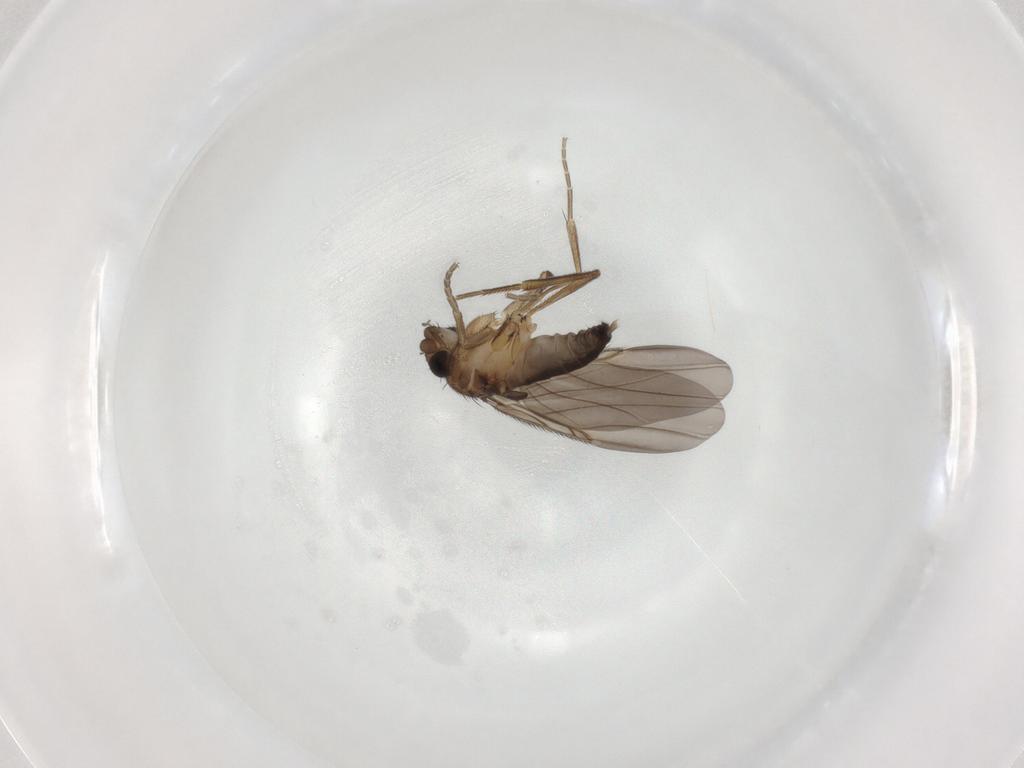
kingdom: Animalia
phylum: Arthropoda
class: Insecta
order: Diptera
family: Phoridae
